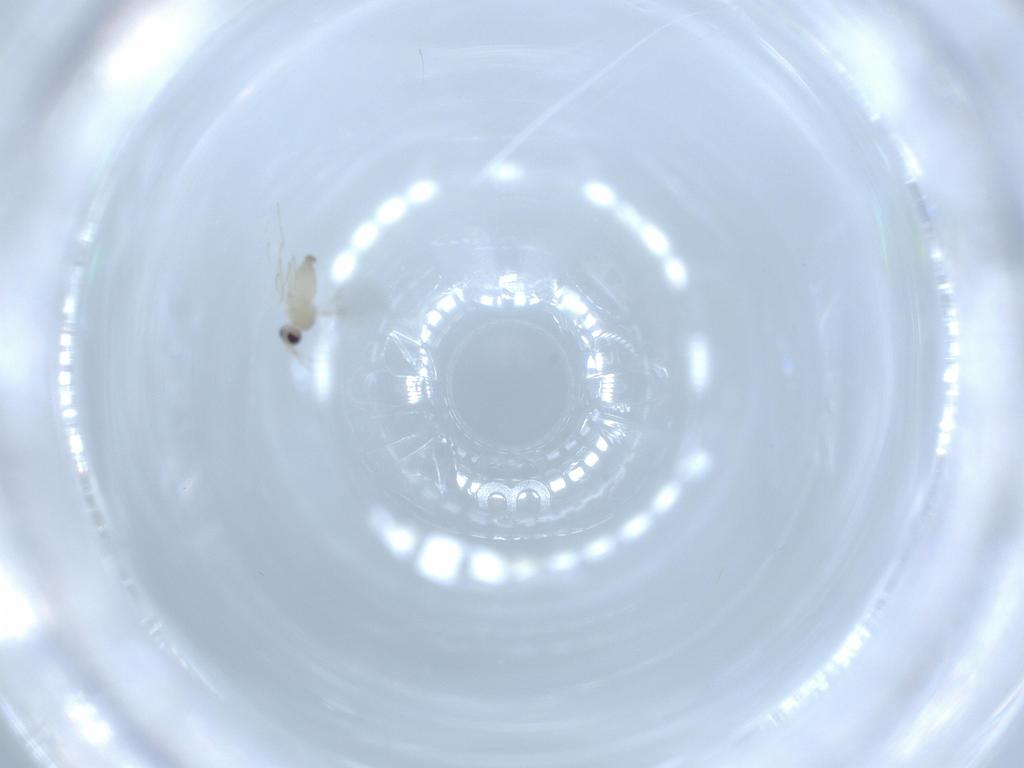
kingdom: Animalia
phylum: Arthropoda
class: Insecta
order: Diptera
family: Cecidomyiidae
